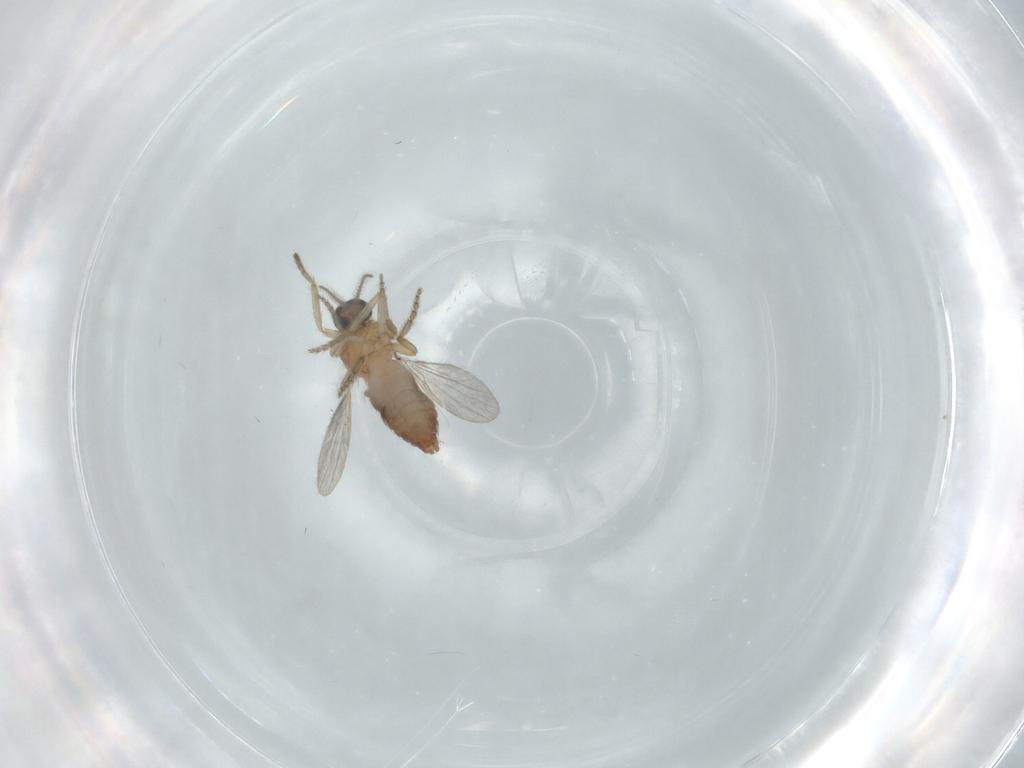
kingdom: Animalia
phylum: Arthropoda
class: Insecta
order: Diptera
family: Ceratopogonidae
